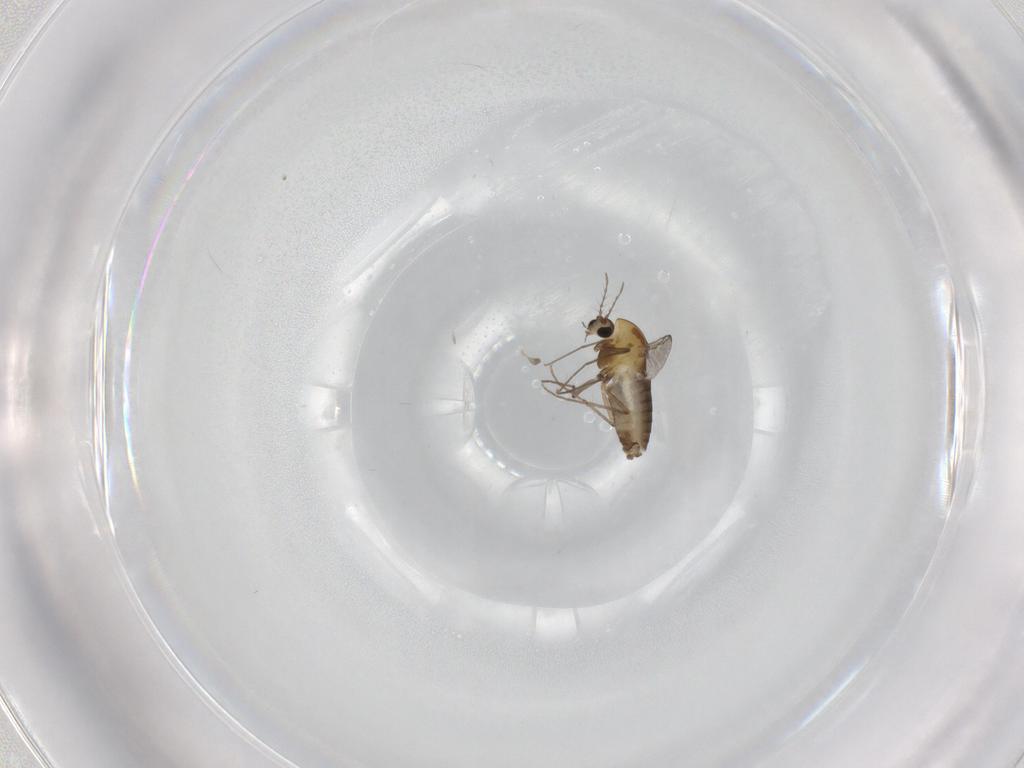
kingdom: Animalia
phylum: Arthropoda
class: Insecta
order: Diptera
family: Chironomidae
